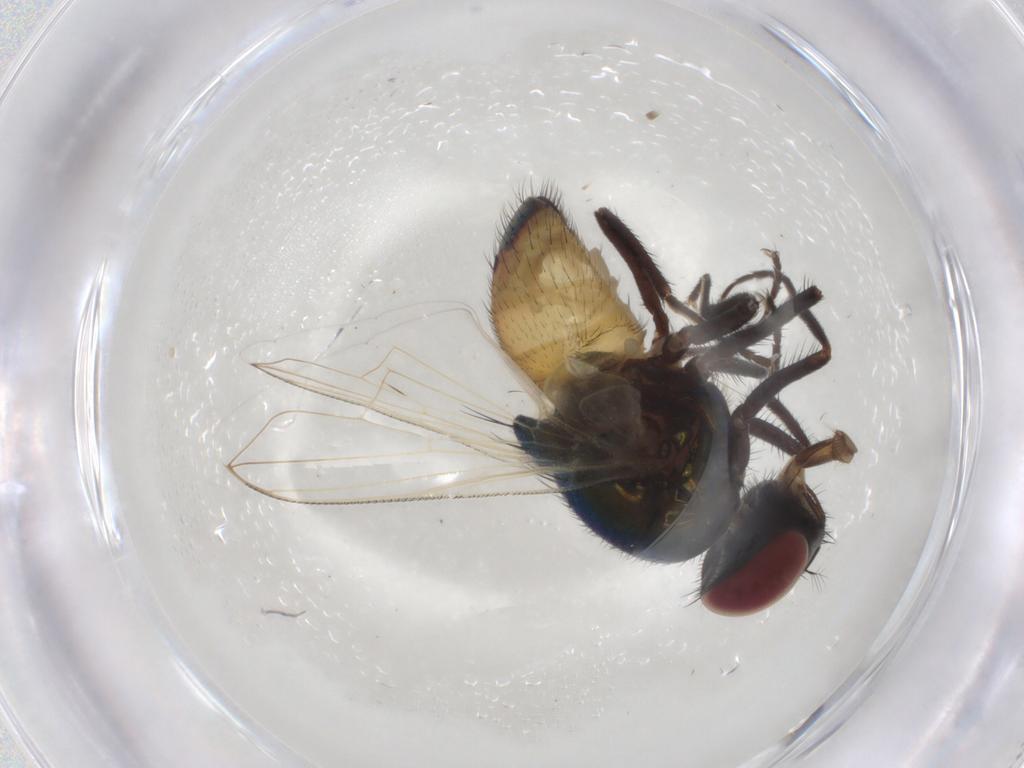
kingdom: Animalia
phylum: Arthropoda
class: Insecta
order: Diptera
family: Muscidae
